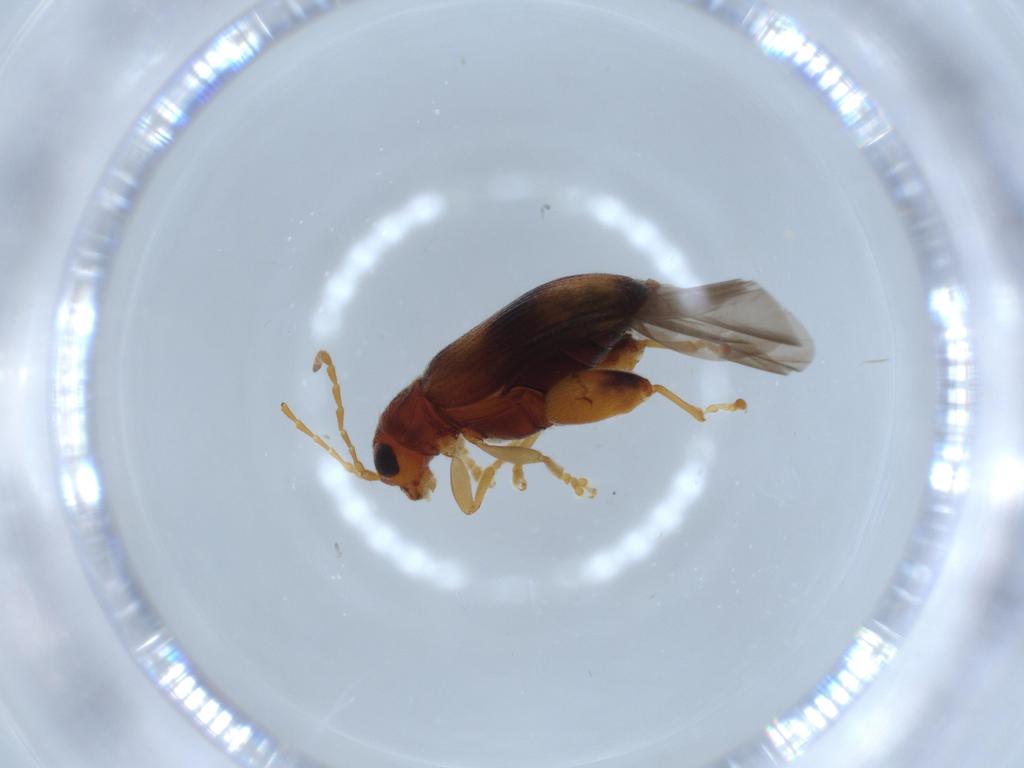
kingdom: Animalia
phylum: Arthropoda
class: Insecta
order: Coleoptera
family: Chrysomelidae
